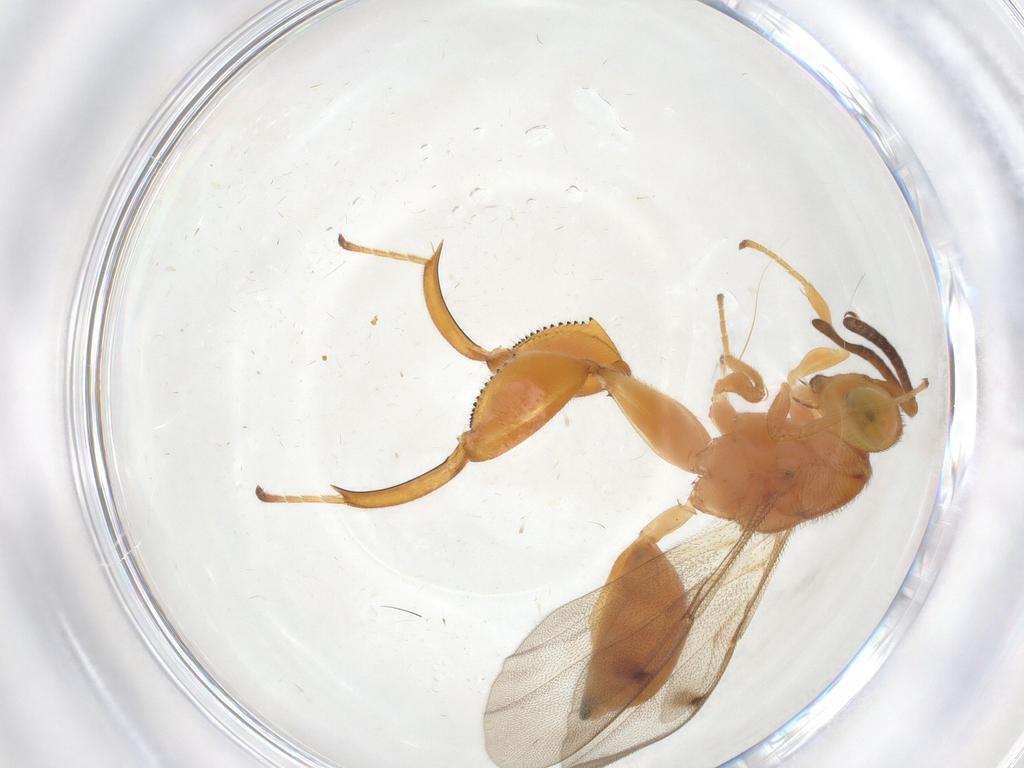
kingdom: Animalia
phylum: Arthropoda
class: Insecta
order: Hymenoptera
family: Chalcididae
